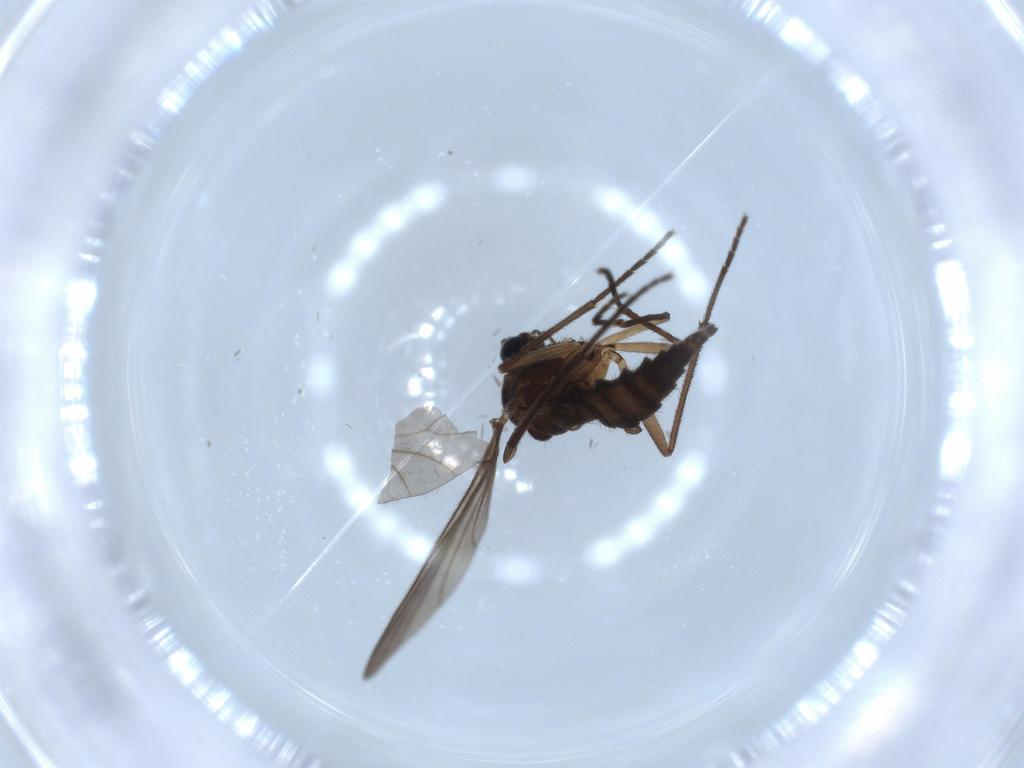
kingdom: Animalia
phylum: Arthropoda
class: Insecta
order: Diptera
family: Sciaridae
